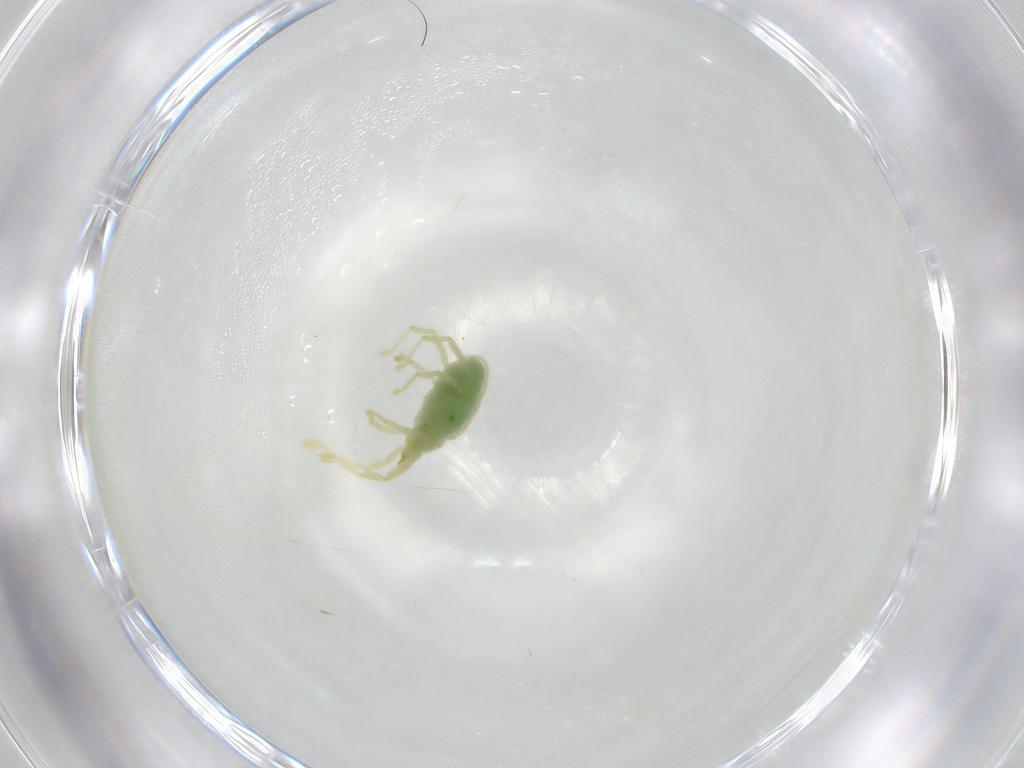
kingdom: Animalia
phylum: Arthropoda
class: Arachnida
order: Trombidiformes
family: Erythraeidae
